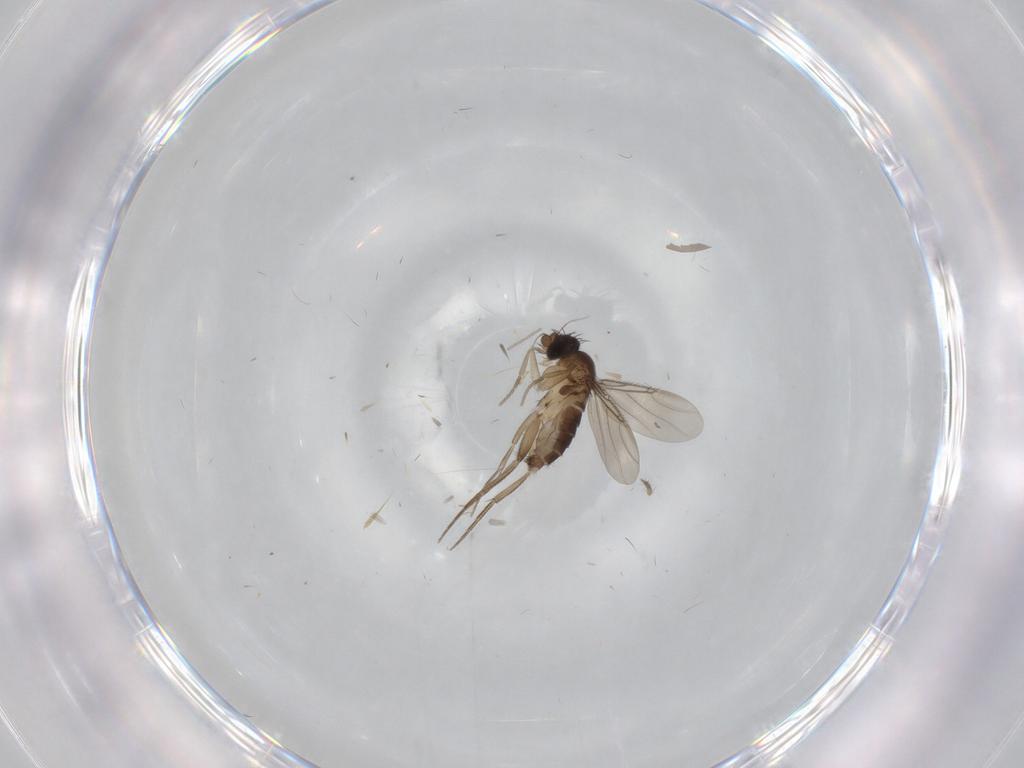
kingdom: Animalia
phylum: Arthropoda
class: Insecta
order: Diptera
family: Phoridae
